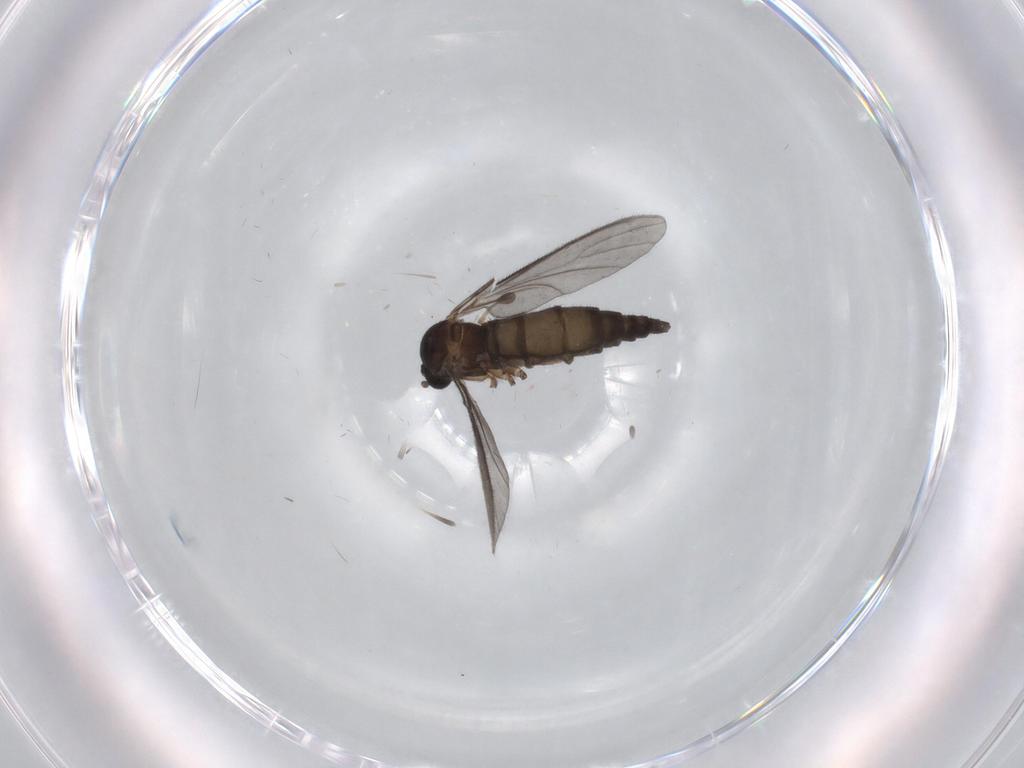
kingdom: Animalia
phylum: Arthropoda
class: Insecta
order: Diptera
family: Sciaridae
